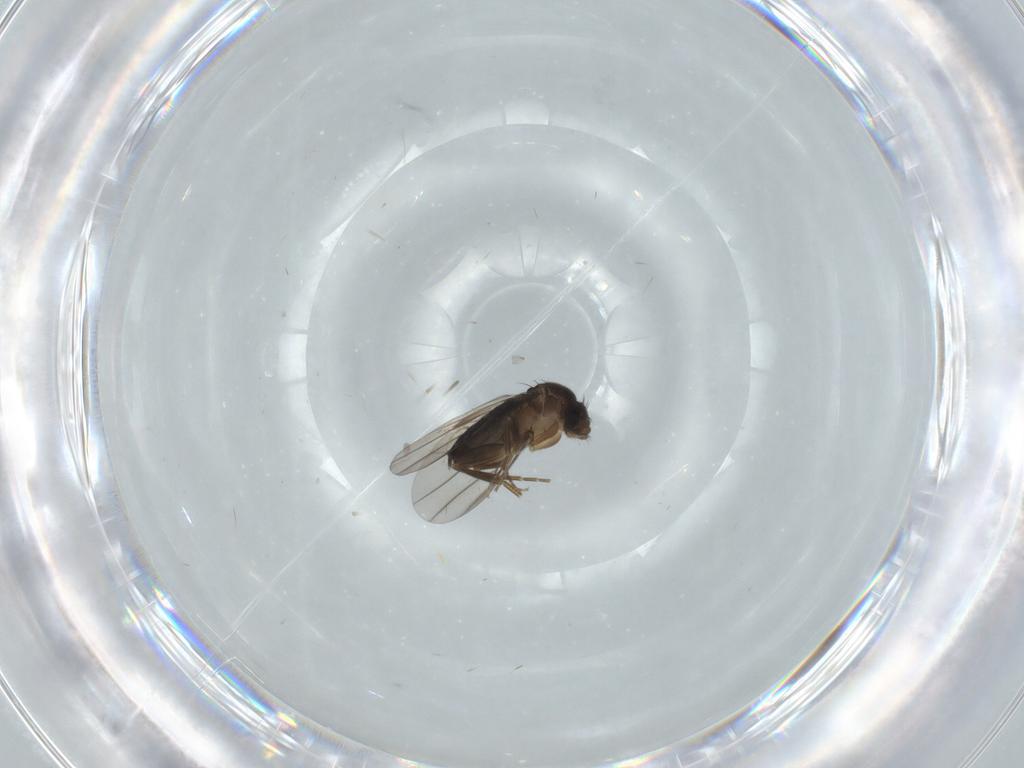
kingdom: Animalia
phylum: Arthropoda
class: Insecta
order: Diptera
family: Phoridae
